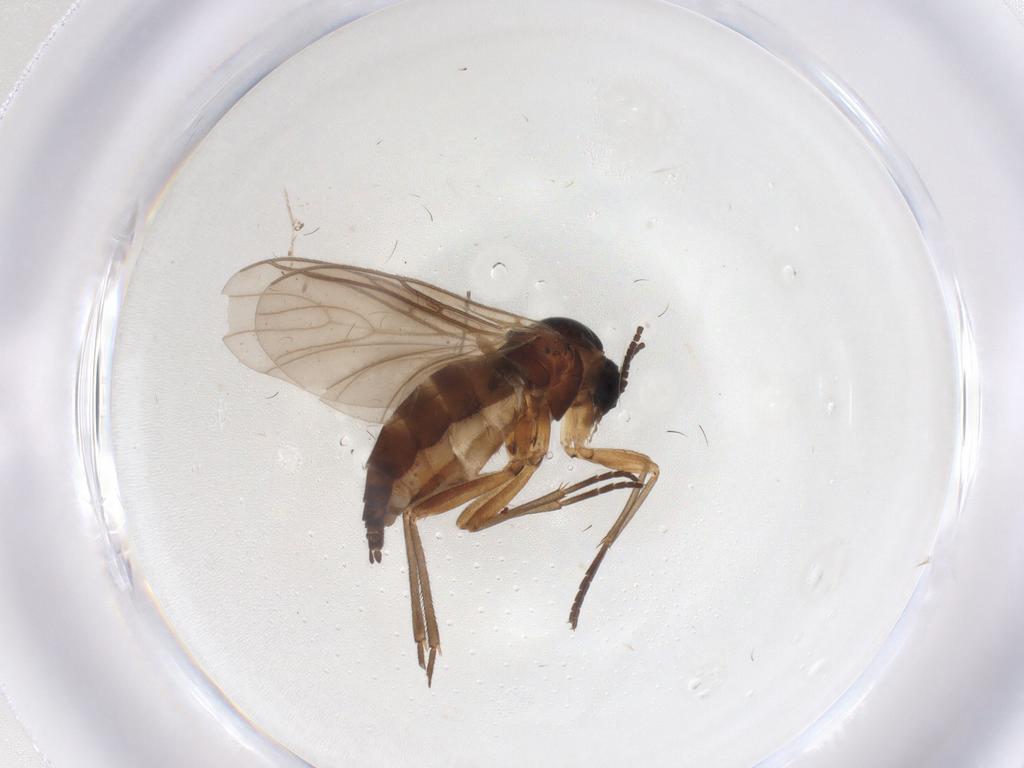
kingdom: Animalia
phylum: Arthropoda
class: Insecta
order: Diptera
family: Sciaridae
